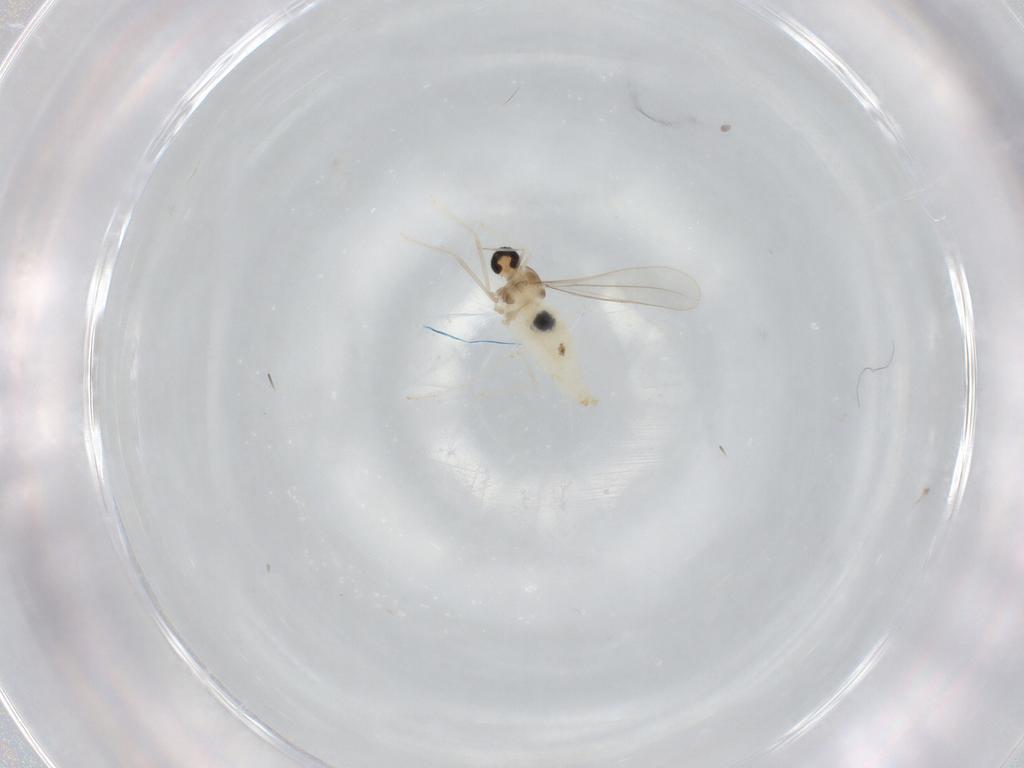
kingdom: Animalia
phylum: Arthropoda
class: Insecta
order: Diptera
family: Cecidomyiidae
